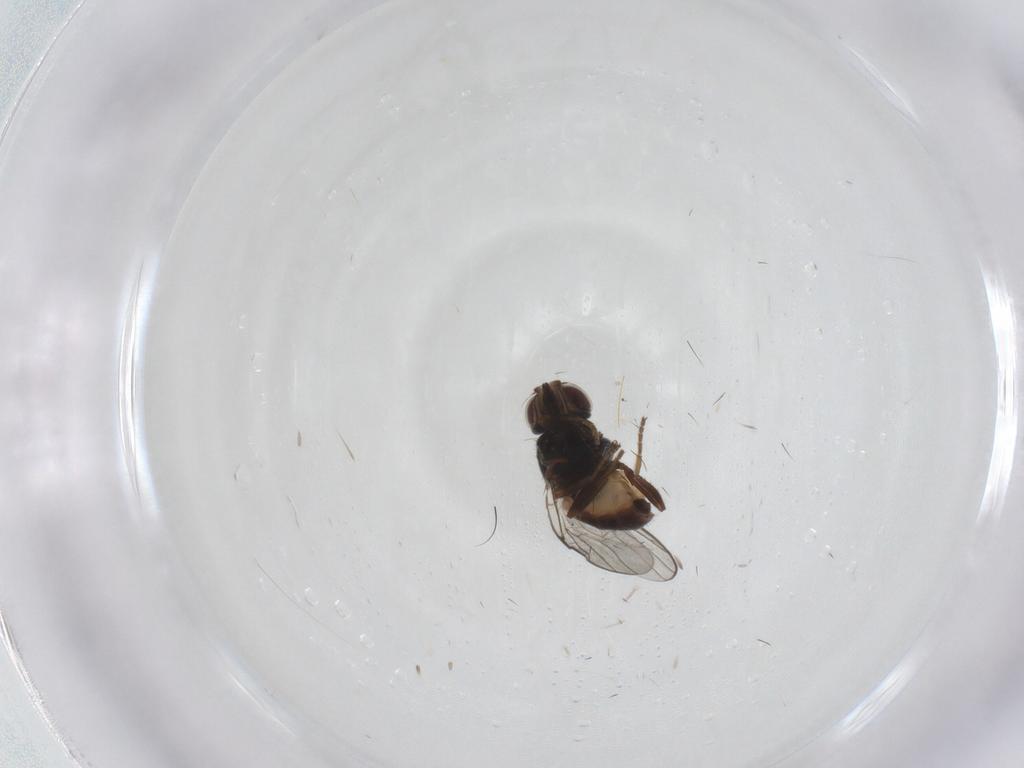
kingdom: Animalia
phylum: Arthropoda
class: Insecta
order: Diptera
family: Chloropidae
